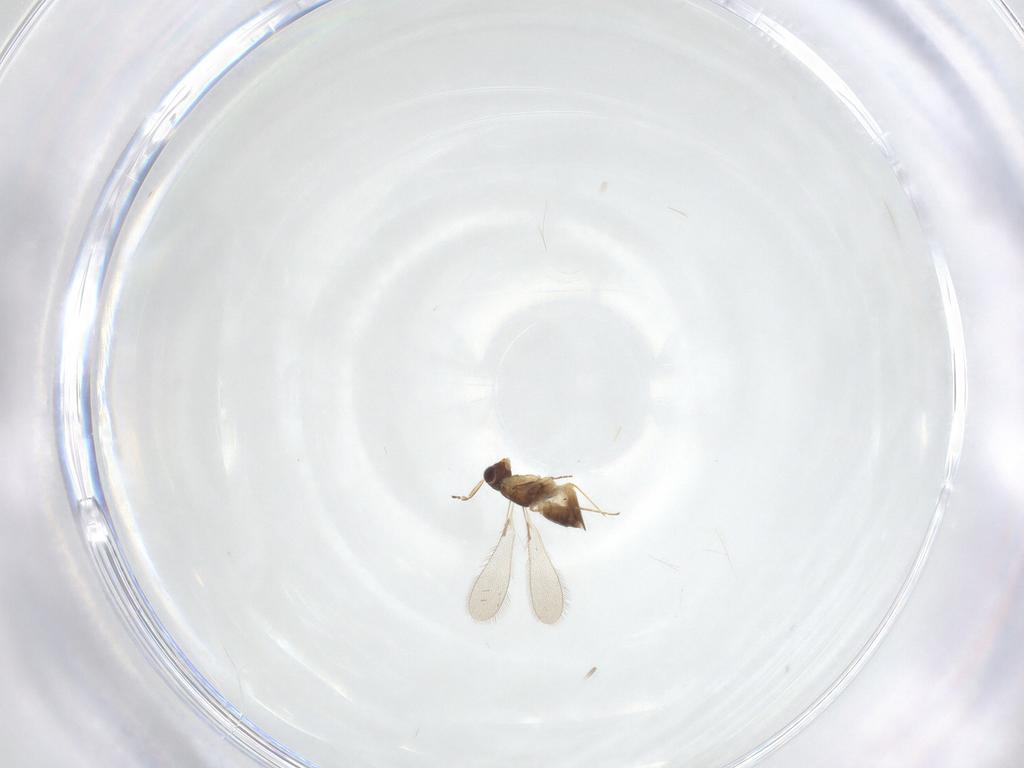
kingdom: Animalia
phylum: Arthropoda
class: Insecta
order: Hymenoptera
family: Mymaridae
